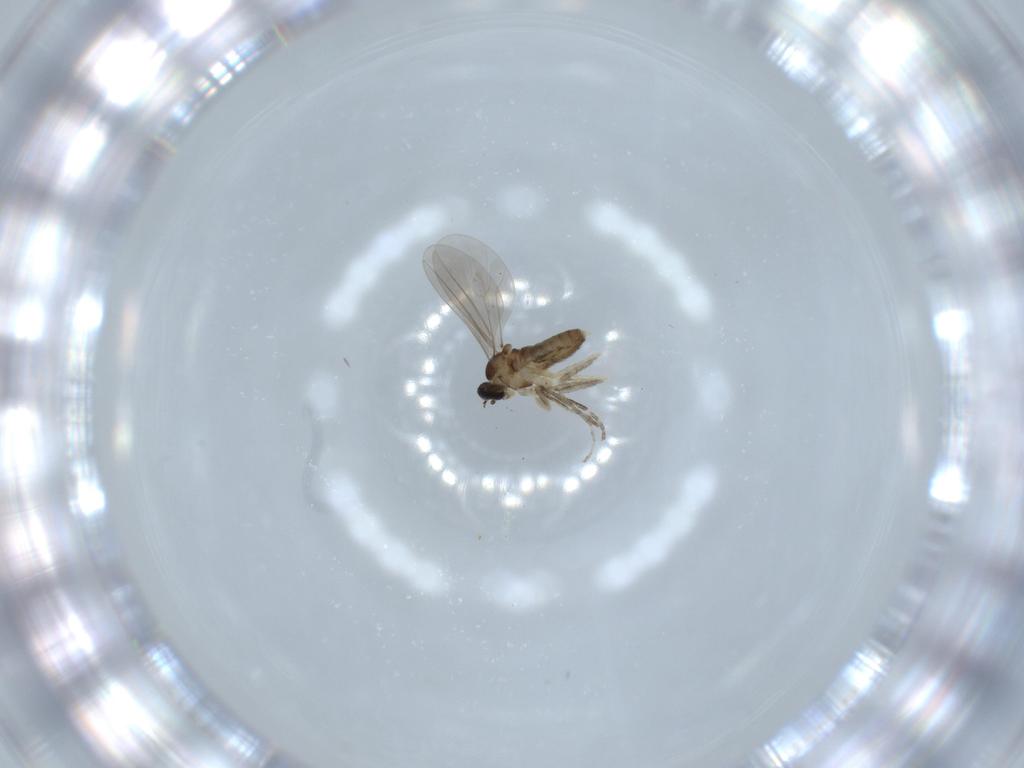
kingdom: Animalia
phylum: Arthropoda
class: Insecta
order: Diptera
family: Cecidomyiidae
